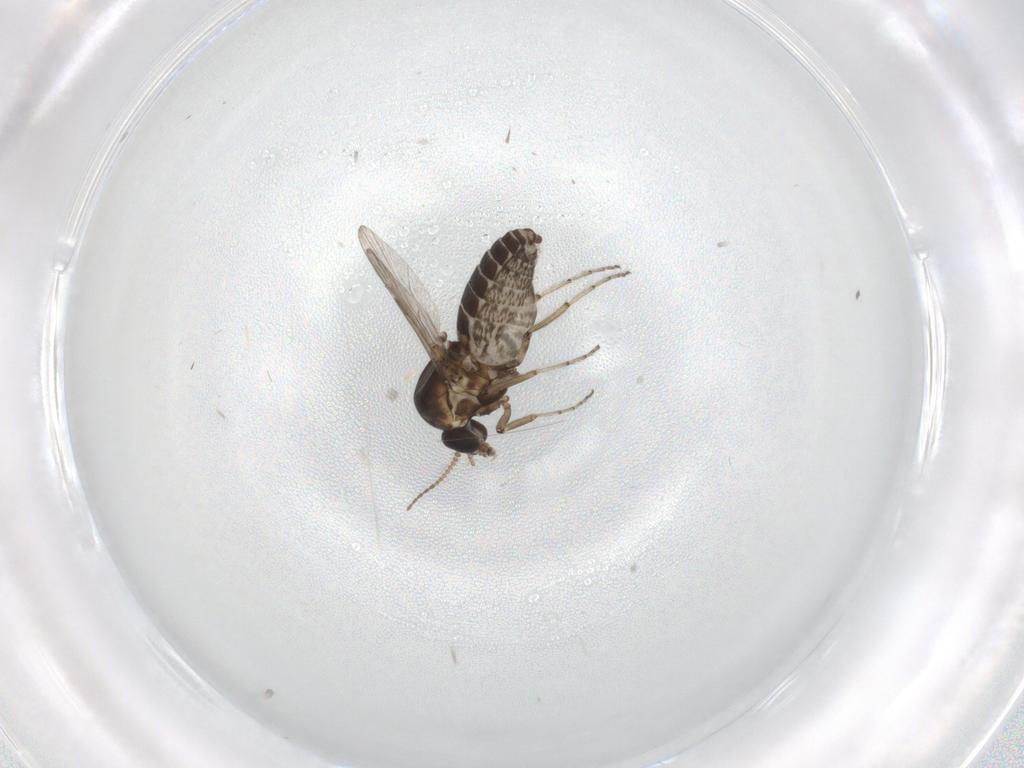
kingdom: Animalia
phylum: Arthropoda
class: Insecta
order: Diptera
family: Ceratopogonidae
